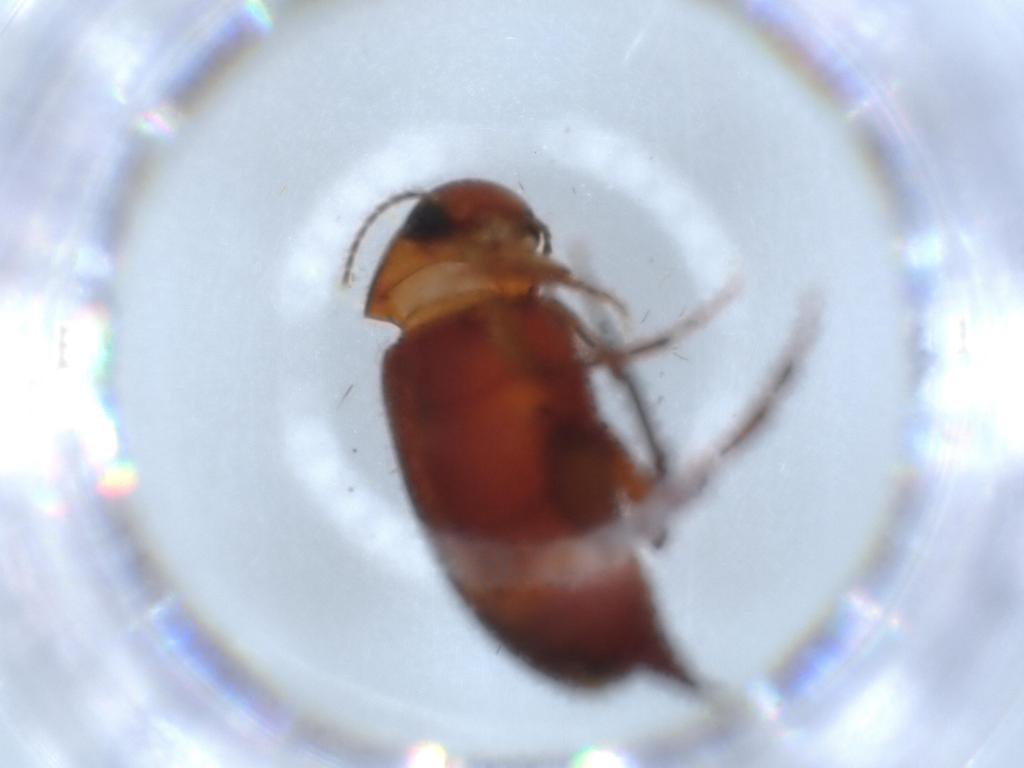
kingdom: Animalia
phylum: Arthropoda
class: Insecta
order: Coleoptera
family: Mordellidae
